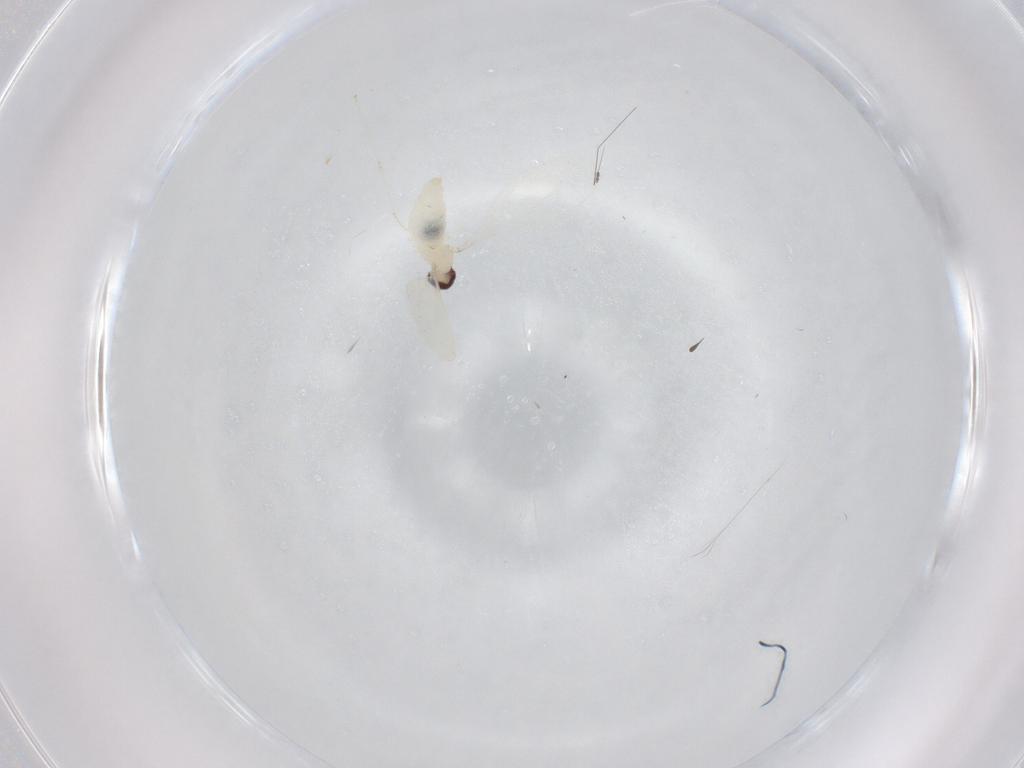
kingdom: Animalia
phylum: Arthropoda
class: Insecta
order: Diptera
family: Cecidomyiidae
